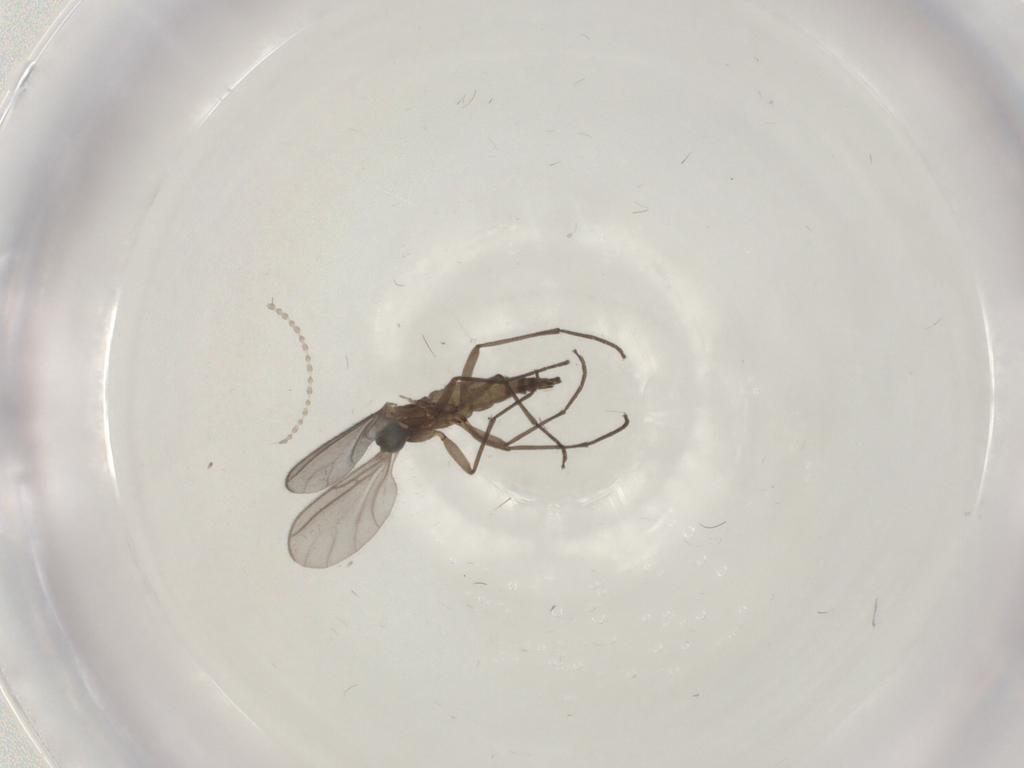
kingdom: Animalia
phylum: Arthropoda
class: Insecta
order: Diptera
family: Sciaridae
